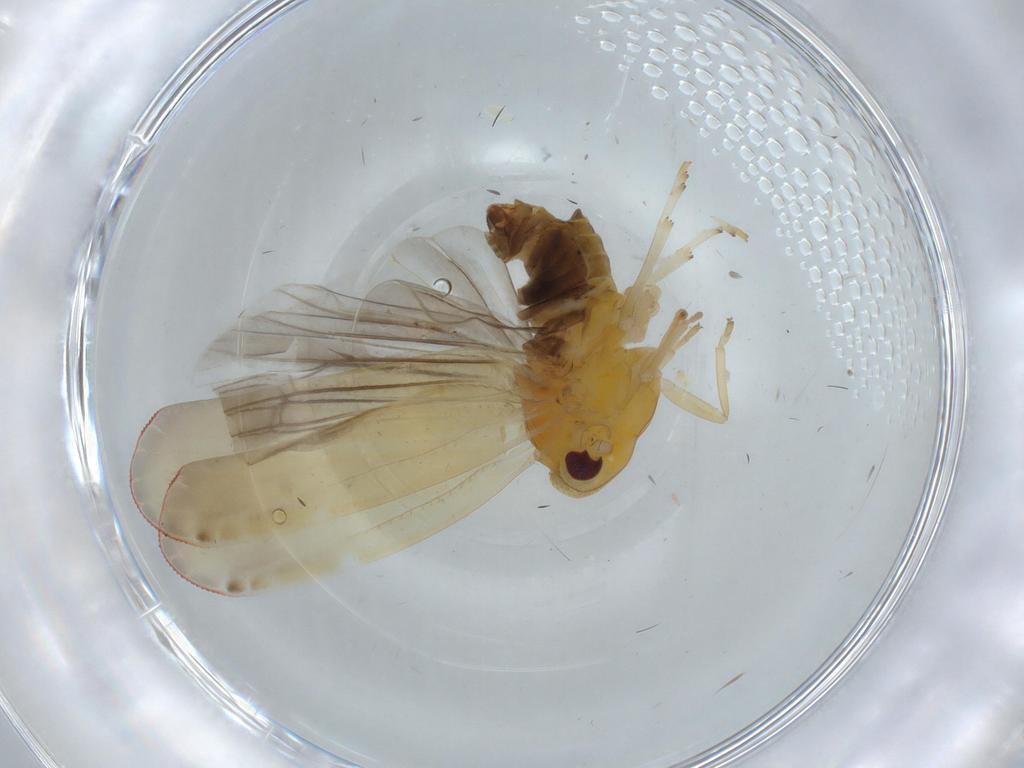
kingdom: Animalia
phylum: Arthropoda
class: Insecta
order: Hemiptera
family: Derbidae
